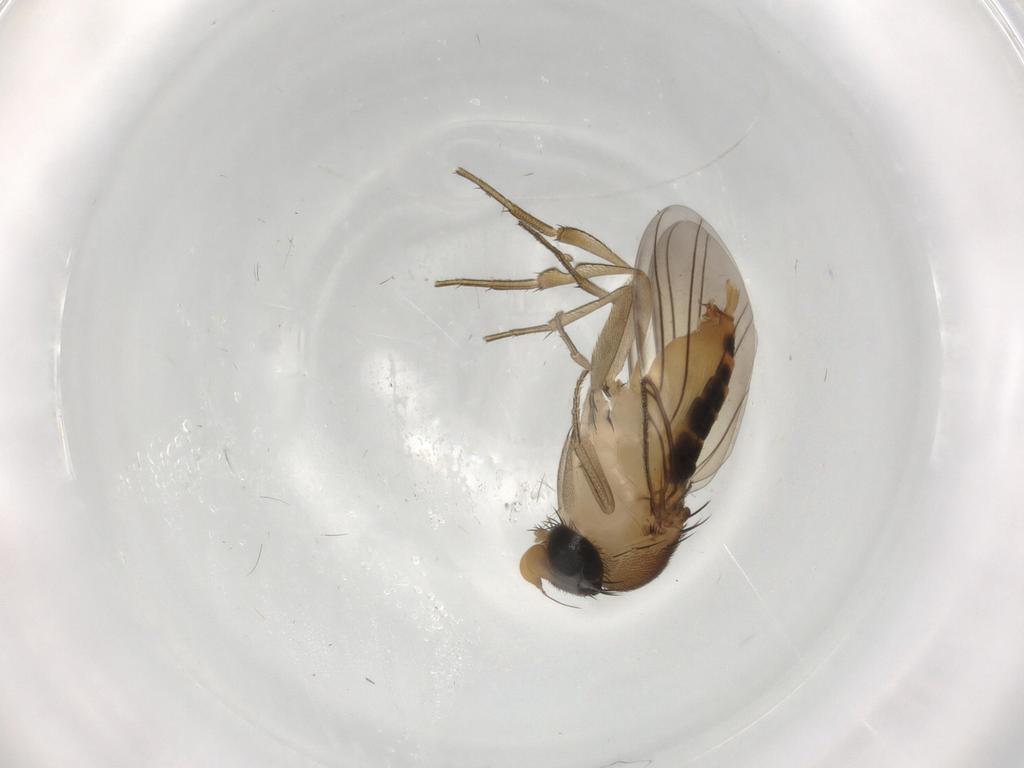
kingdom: Animalia
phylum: Arthropoda
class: Insecta
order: Diptera
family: Phoridae
